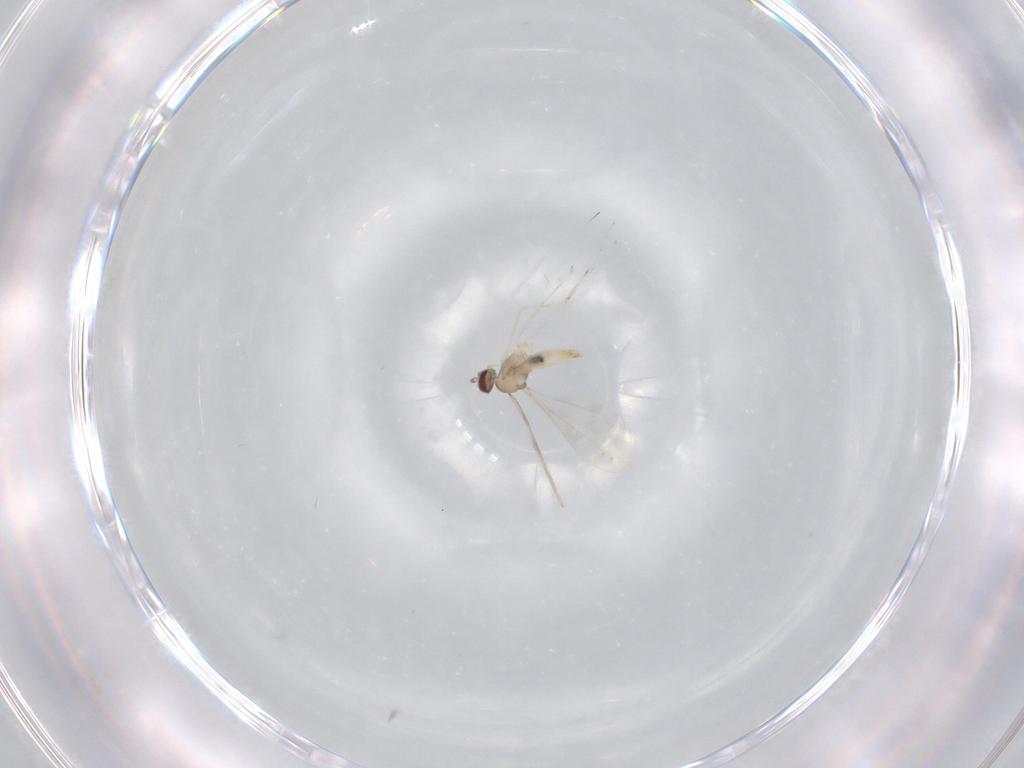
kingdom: Animalia
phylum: Arthropoda
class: Insecta
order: Diptera
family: Cecidomyiidae
